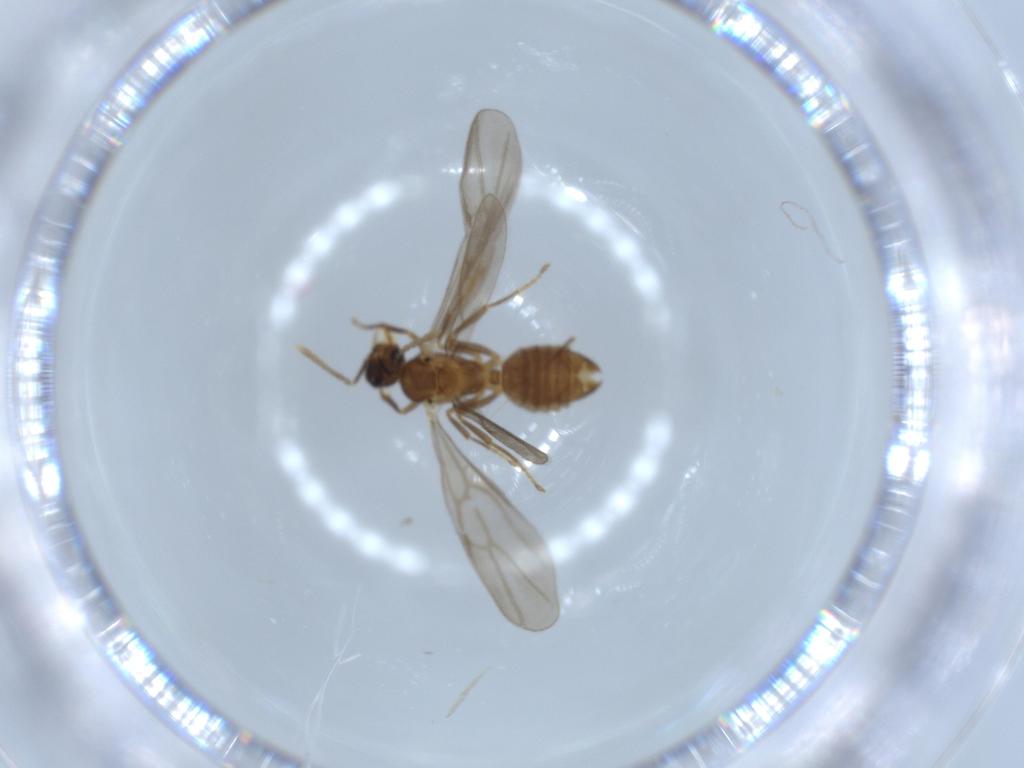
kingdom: Animalia
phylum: Arthropoda
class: Insecta
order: Hymenoptera
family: Formicidae
